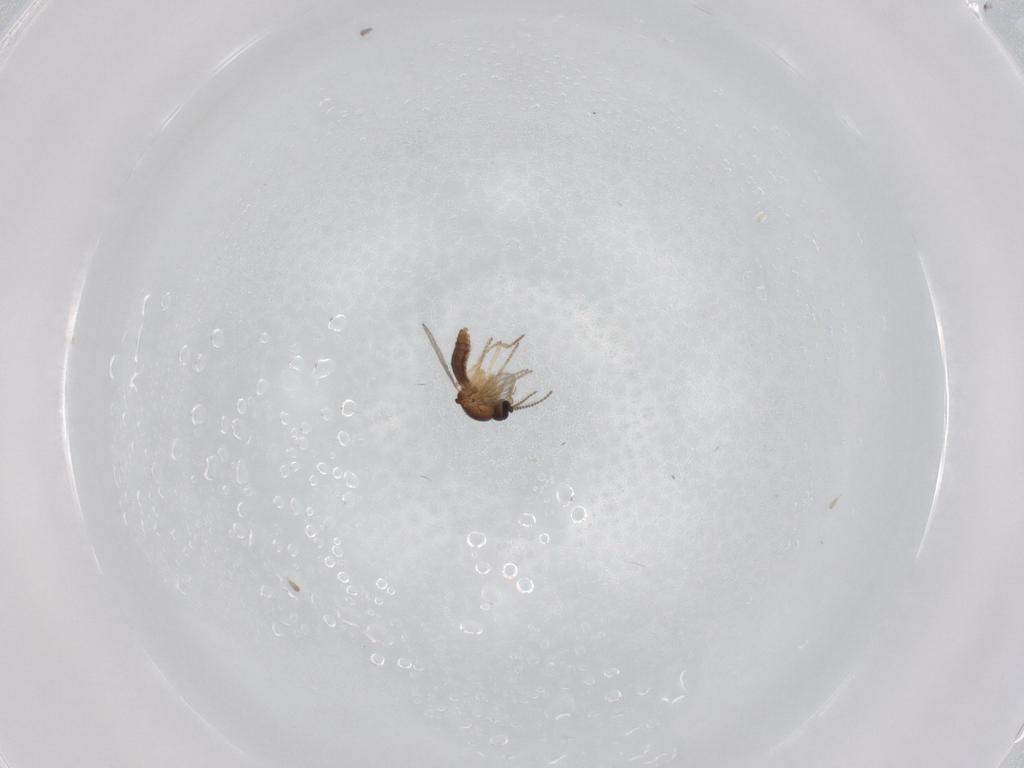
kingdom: Animalia
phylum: Arthropoda
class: Insecta
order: Diptera
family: Ceratopogonidae
